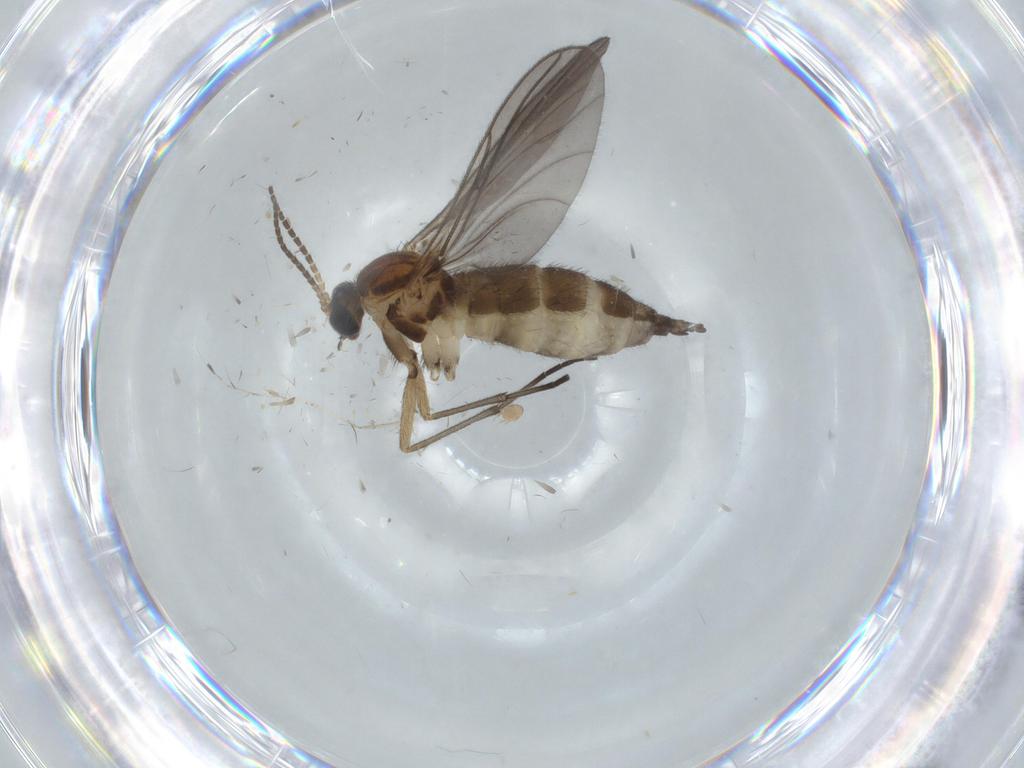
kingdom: Animalia
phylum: Arthropoda
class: Insecta
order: Diptera
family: Sciaridae
